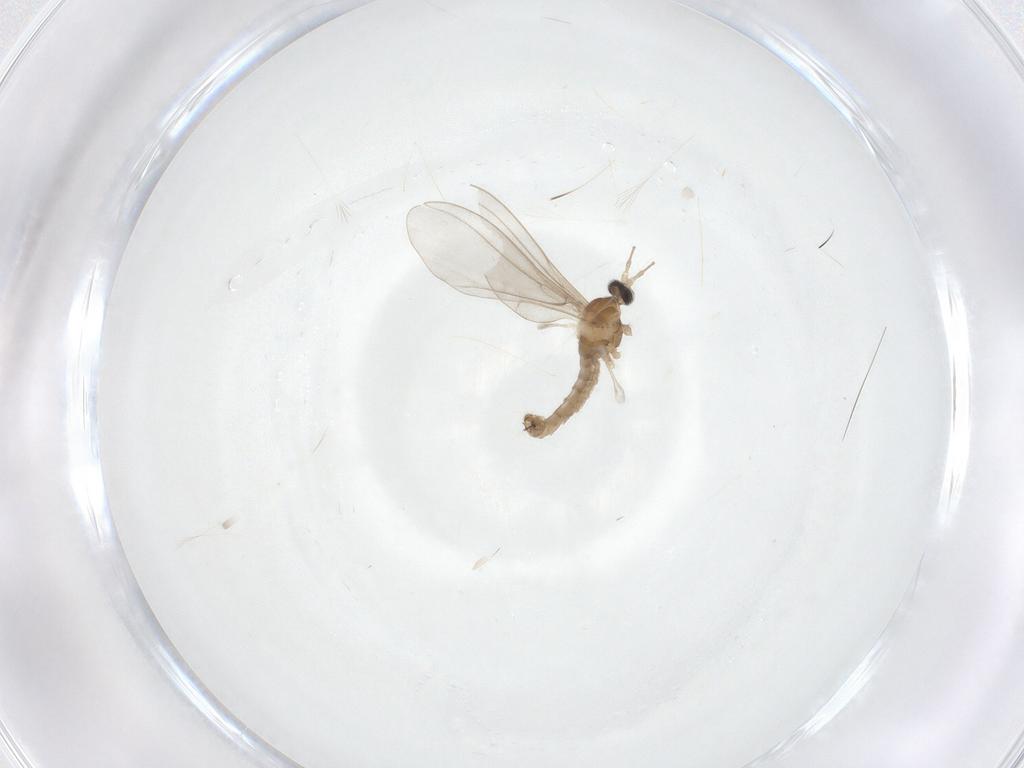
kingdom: Animalia
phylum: Arthropoda
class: Insecta
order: Diptera
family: Cecidomyiidae
